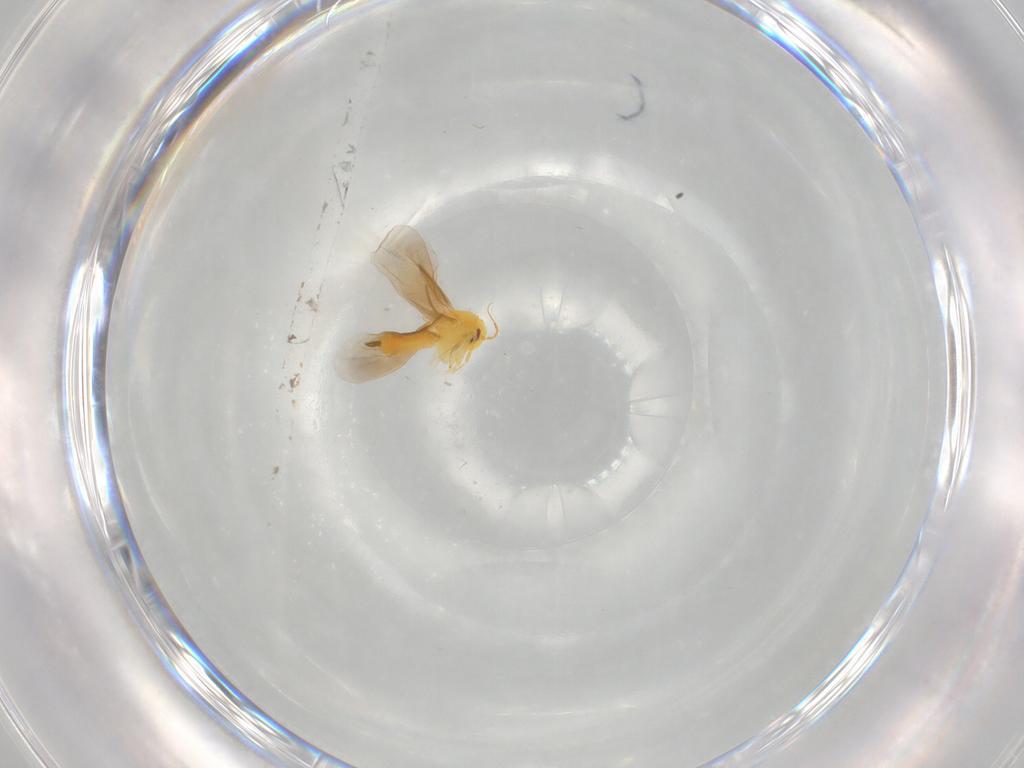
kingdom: Animalia
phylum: Arthropoda
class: Insecta
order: Hemiptera
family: Aleyrodidae
